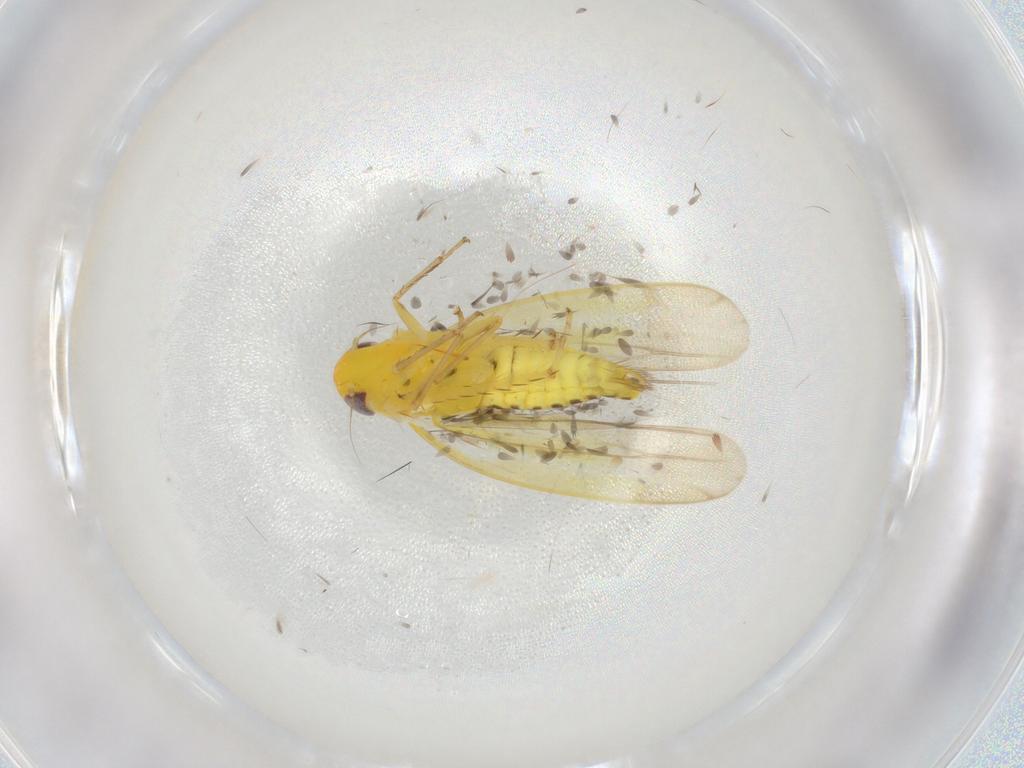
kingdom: Animalia
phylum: Arthropoda
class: Insecta
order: Hemiptera
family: Cicadellidae
